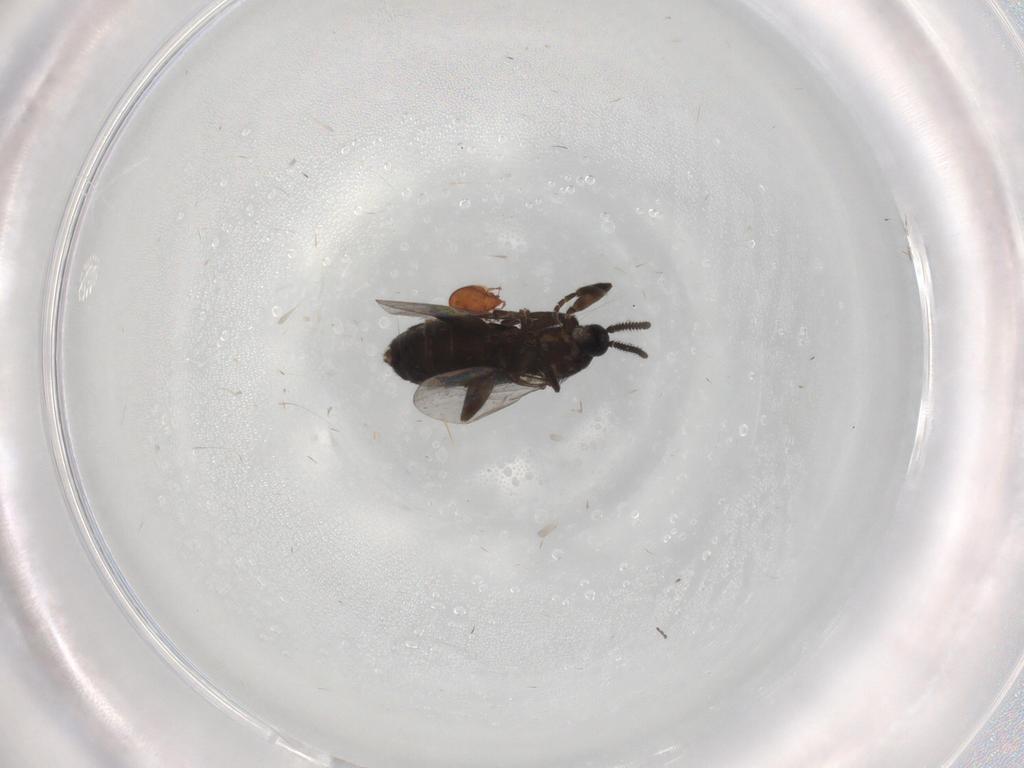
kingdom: Animalia
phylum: Arthropoda
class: Insecta
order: Diptera
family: Scatopsidae
